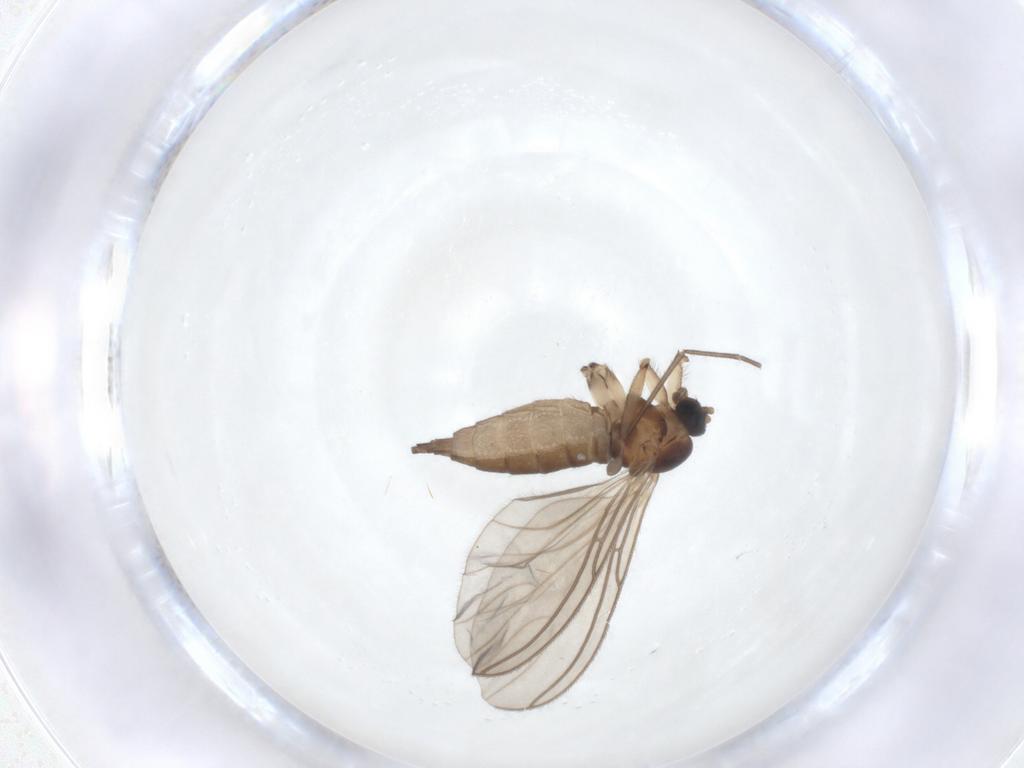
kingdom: Animalia
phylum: Arthropoda
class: Insecta
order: Diptera
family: Sciaridae
